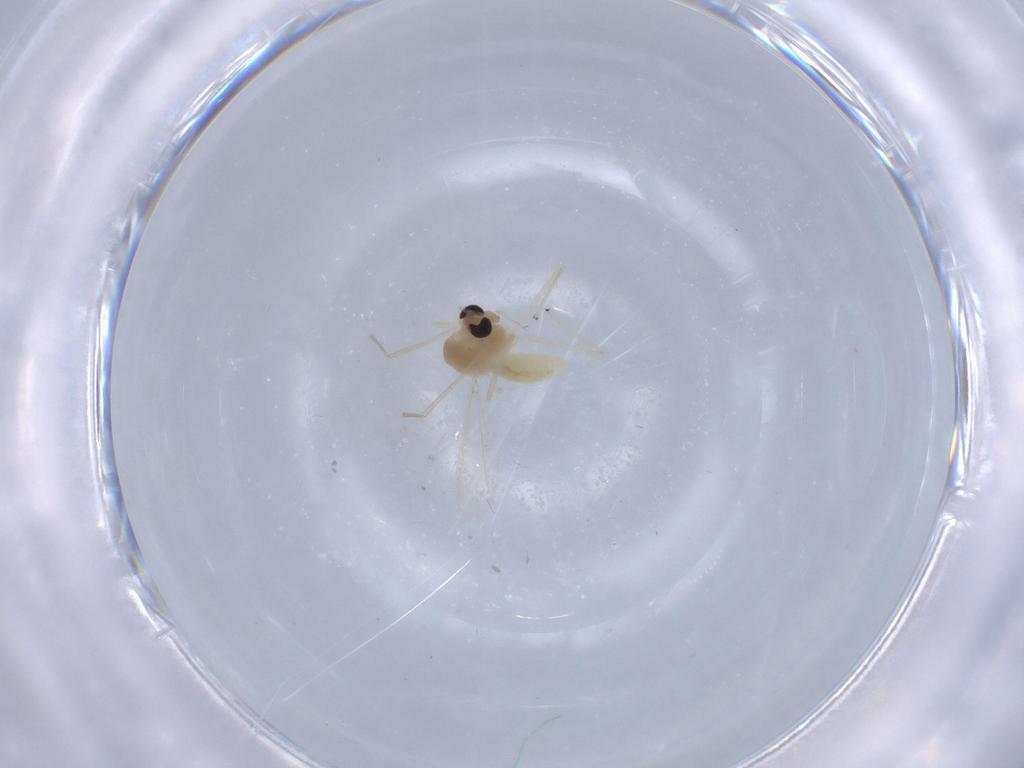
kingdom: Animalia
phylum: Arthropoda
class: Insecta
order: Diptera
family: Chironomidae
